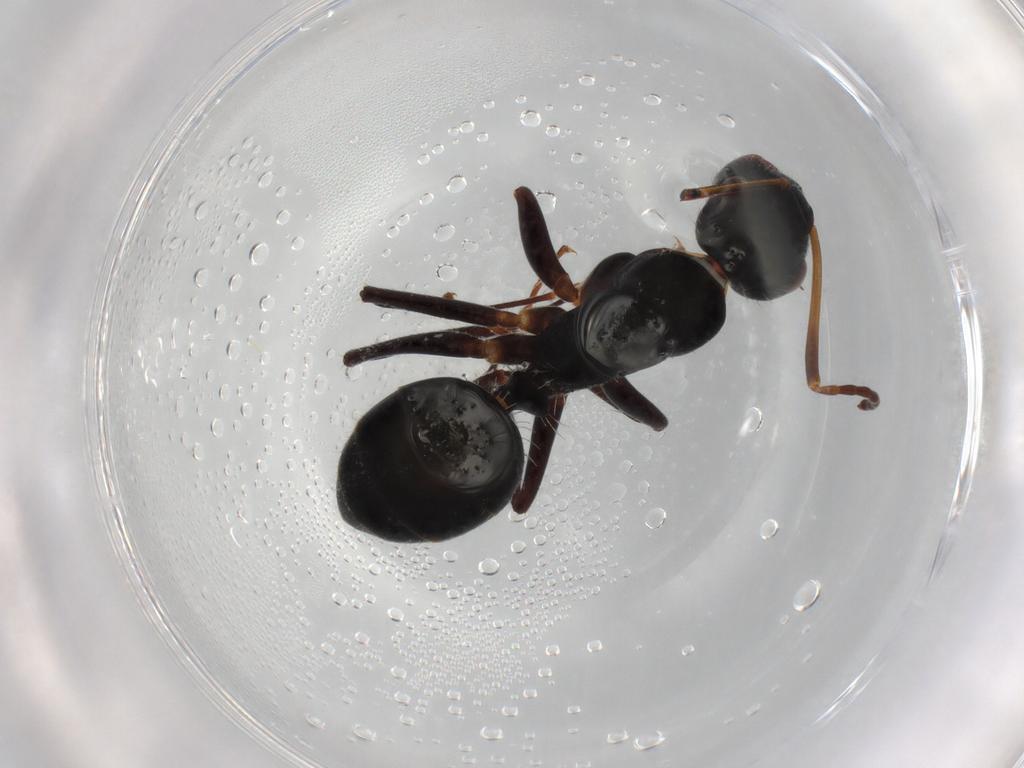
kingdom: Animalia
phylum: Arthropoda
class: Insecta
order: Hymenoptera
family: Formicidae
